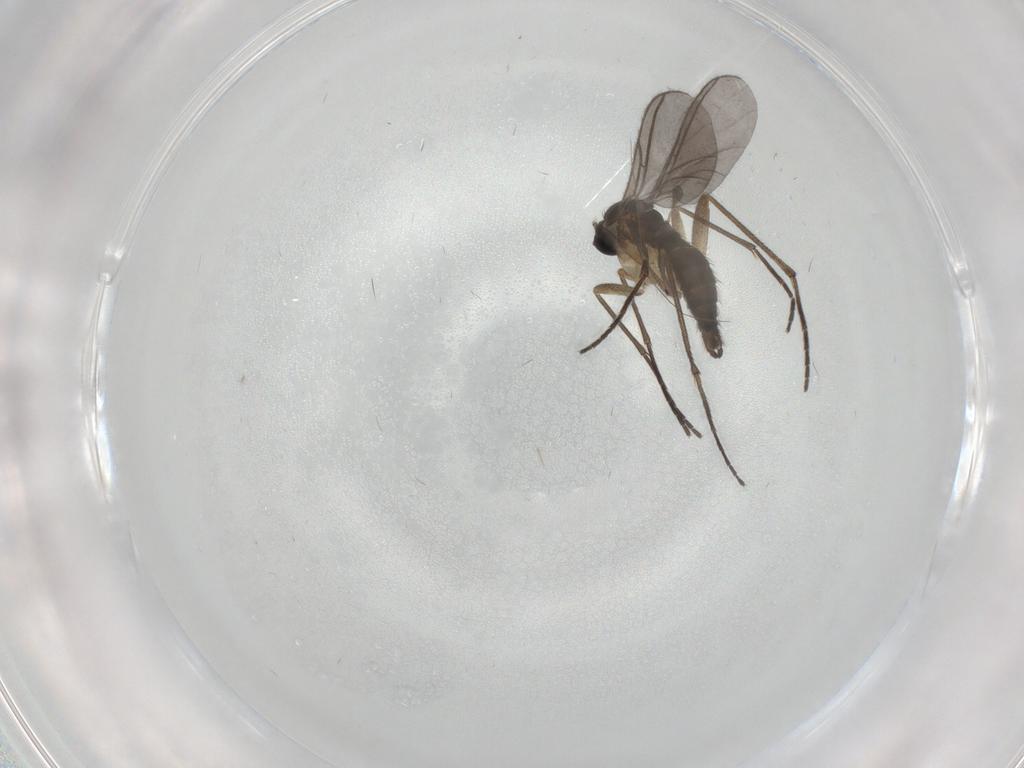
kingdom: Animalia
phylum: Arthropoda
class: Insecta
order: Diptera
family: Sciaridae
